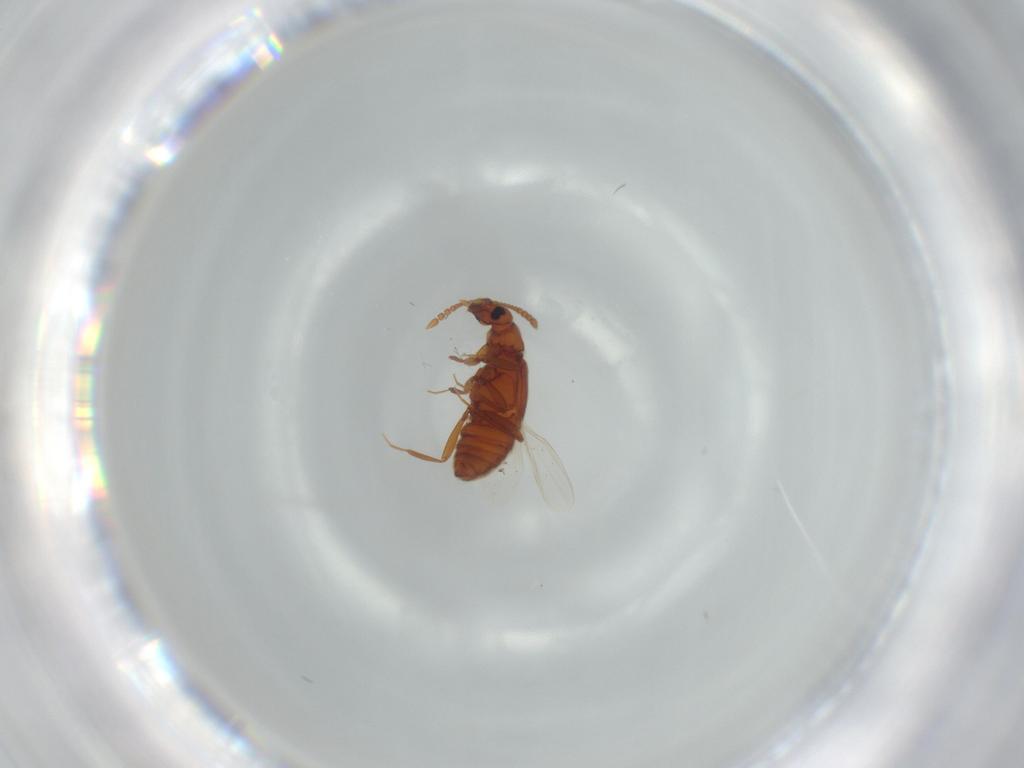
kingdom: Animalia
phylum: Arthropoda
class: Insecta
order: Coleoptera
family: Staphylinidae
